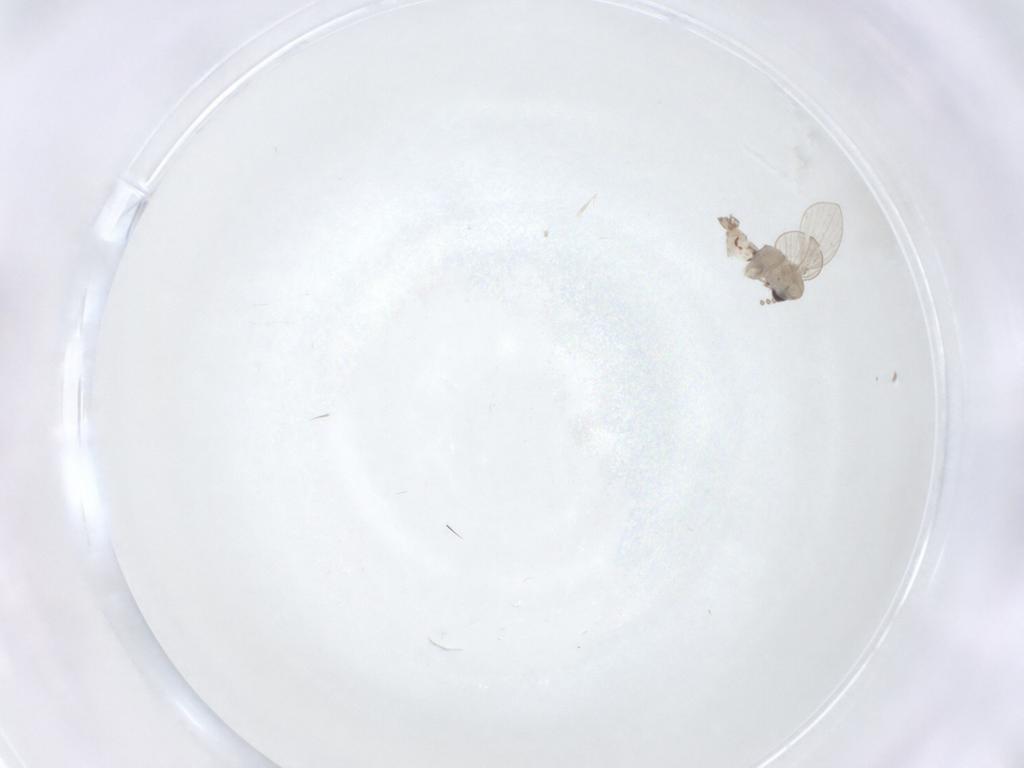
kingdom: Animalia
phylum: Arthropoda
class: Insecta
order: Diptera
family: Psychodidae
